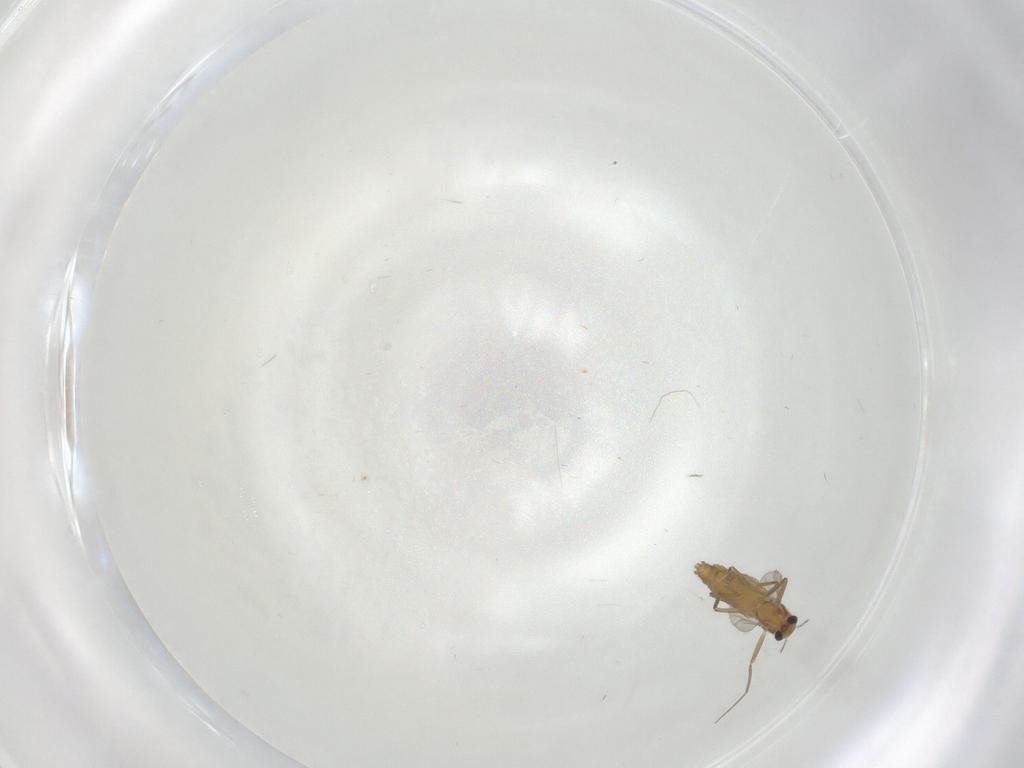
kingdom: Animalia
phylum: Arthropoda
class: Insecta
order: Diptera
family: Chironomidae
